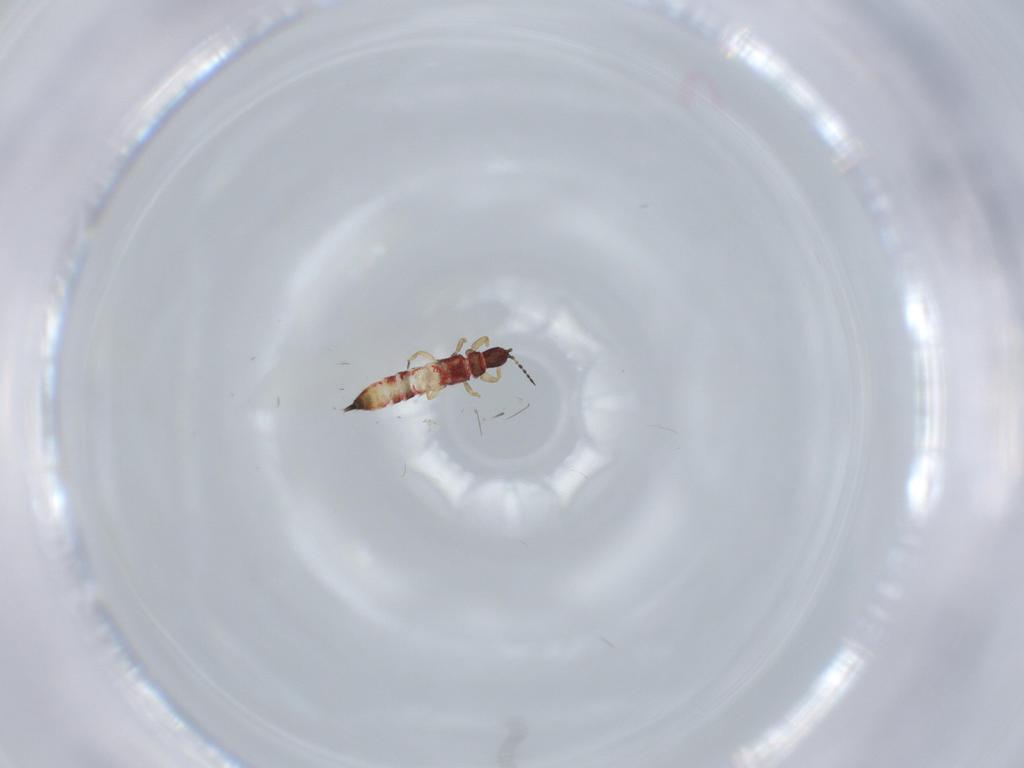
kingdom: Animalia
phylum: Arthropoda
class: Insecta
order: Thysanoptera
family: Phlaeothripidae
